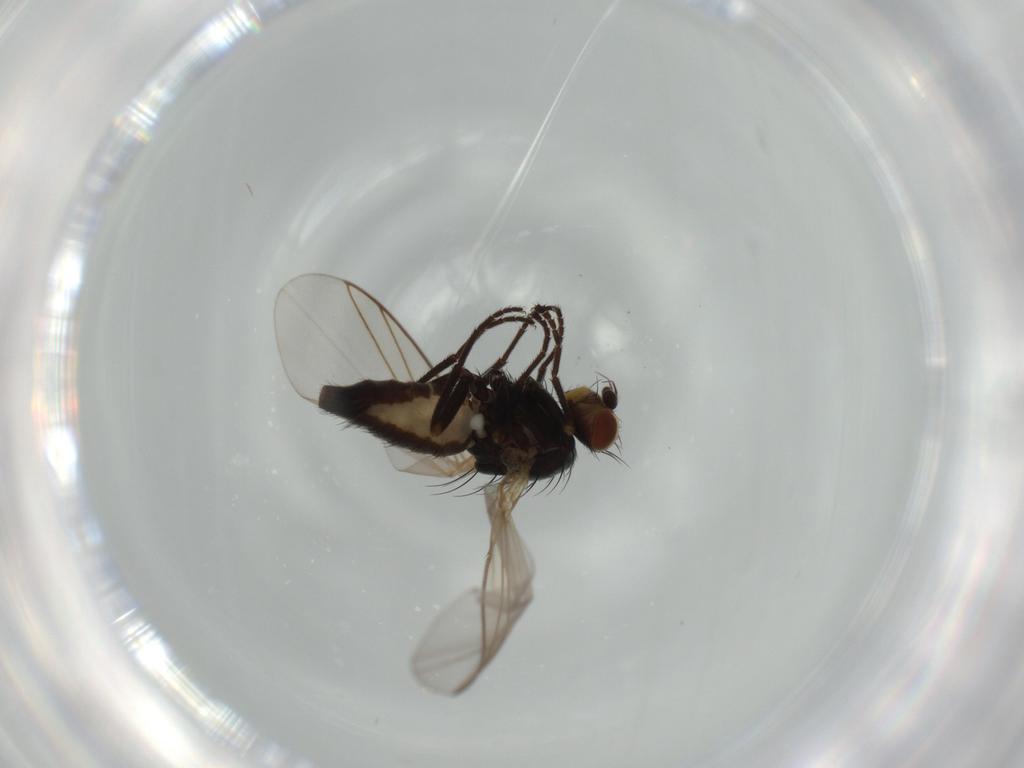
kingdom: Animalia
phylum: Arthropoda
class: Insecta
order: Diptera
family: Agromyzidae
